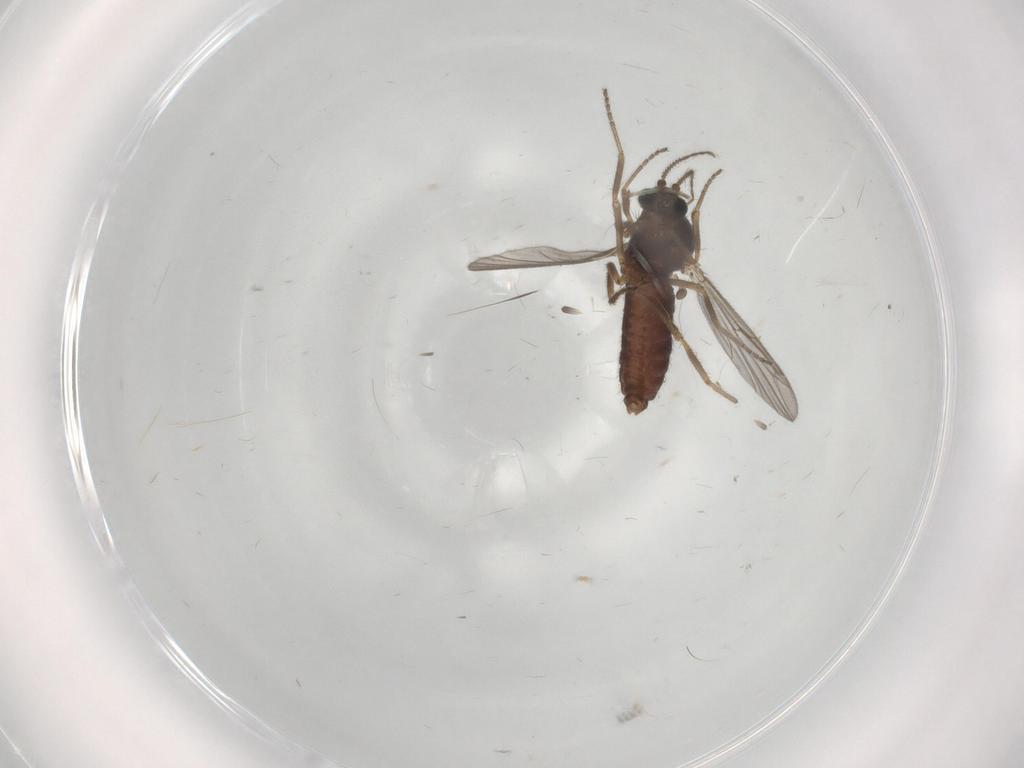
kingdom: Animalia
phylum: Arthropoda
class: Insecta
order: Diptera
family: Ceratopogonidae
